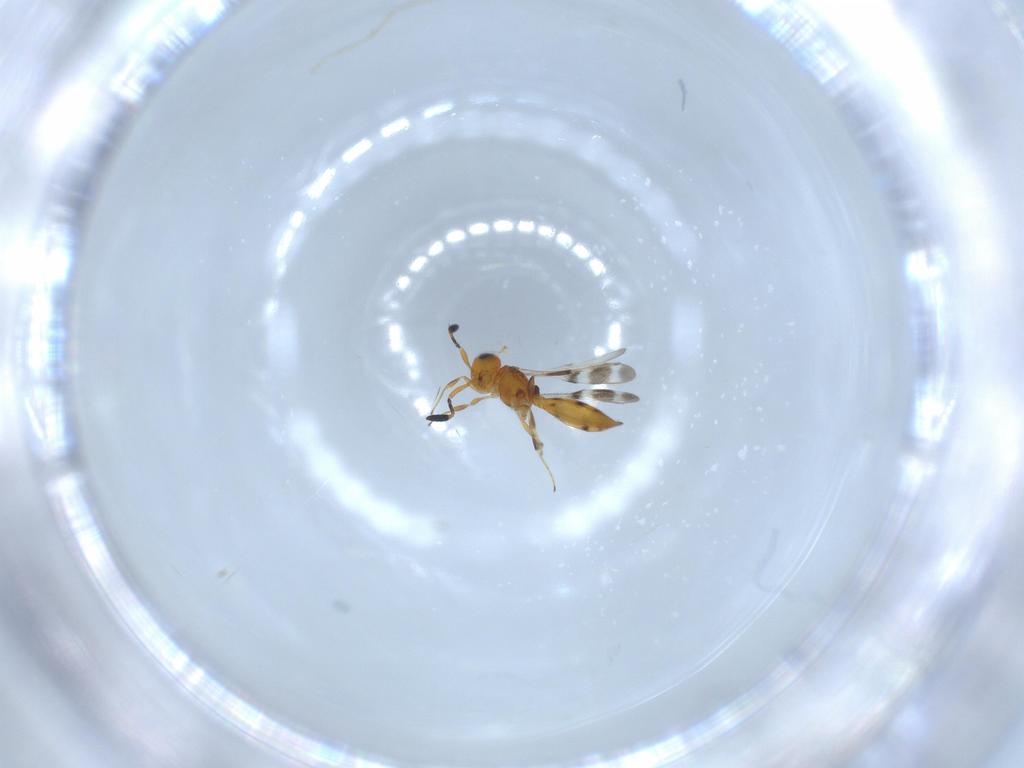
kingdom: Animalia
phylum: Arthropoda
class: Insecta
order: Hymenoptera
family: Scelionidae
